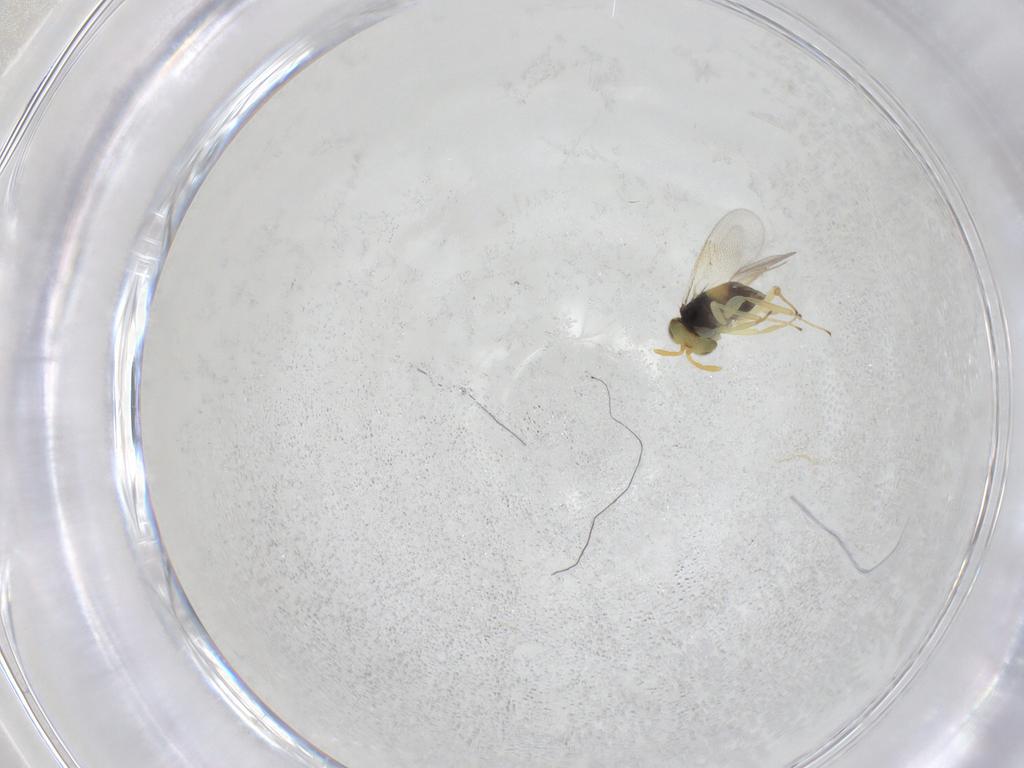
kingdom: Animalia
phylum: Arthropoda
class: Insecta
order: Hymenoptera
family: Aphelinidae
